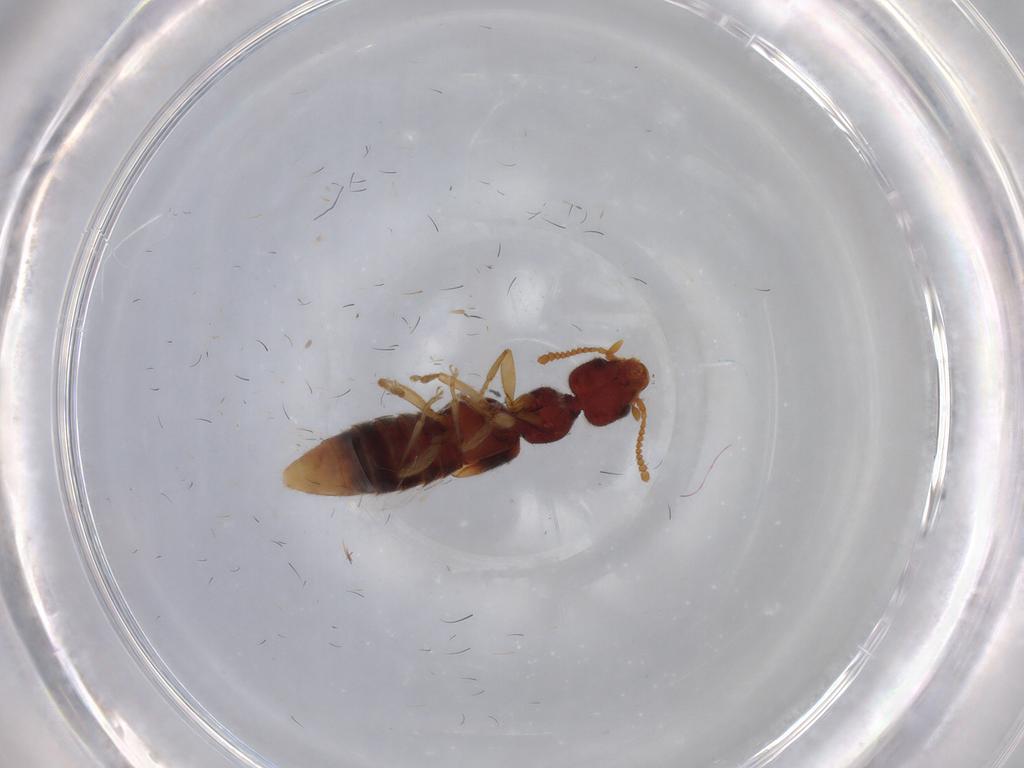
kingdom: Animalia
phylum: Arthropoda
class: Insecta
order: Coleoptera
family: Staphylinidae
